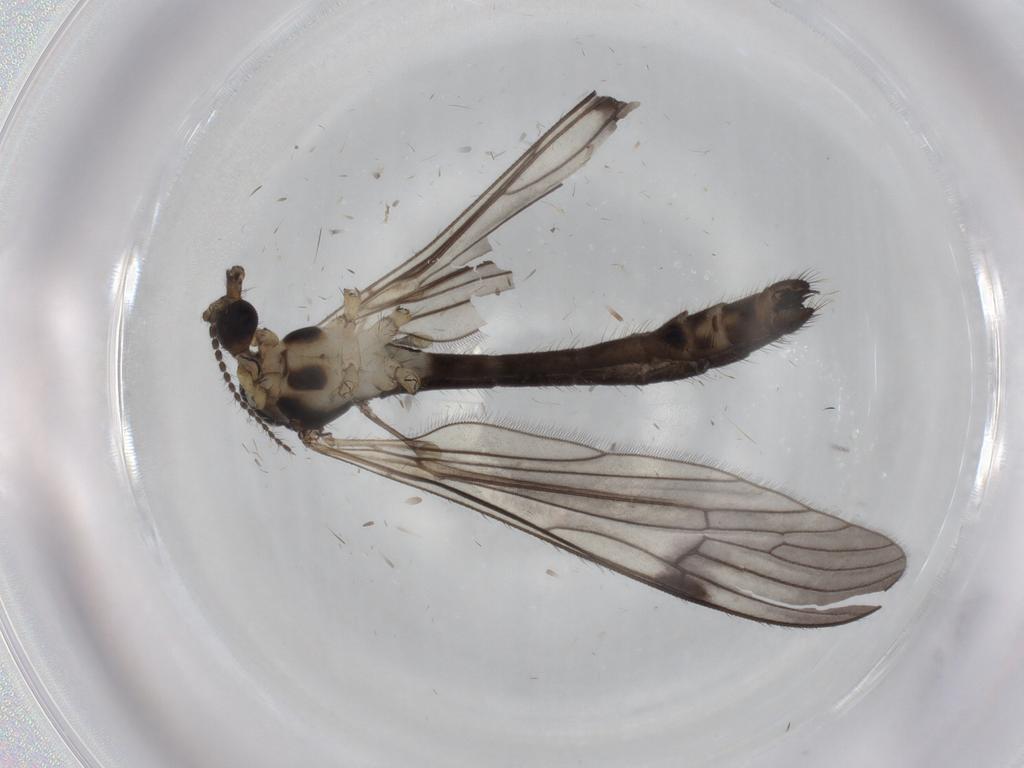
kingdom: Animalia
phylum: Arthropoda
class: Insecta
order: Diptera
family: Limoniidae
